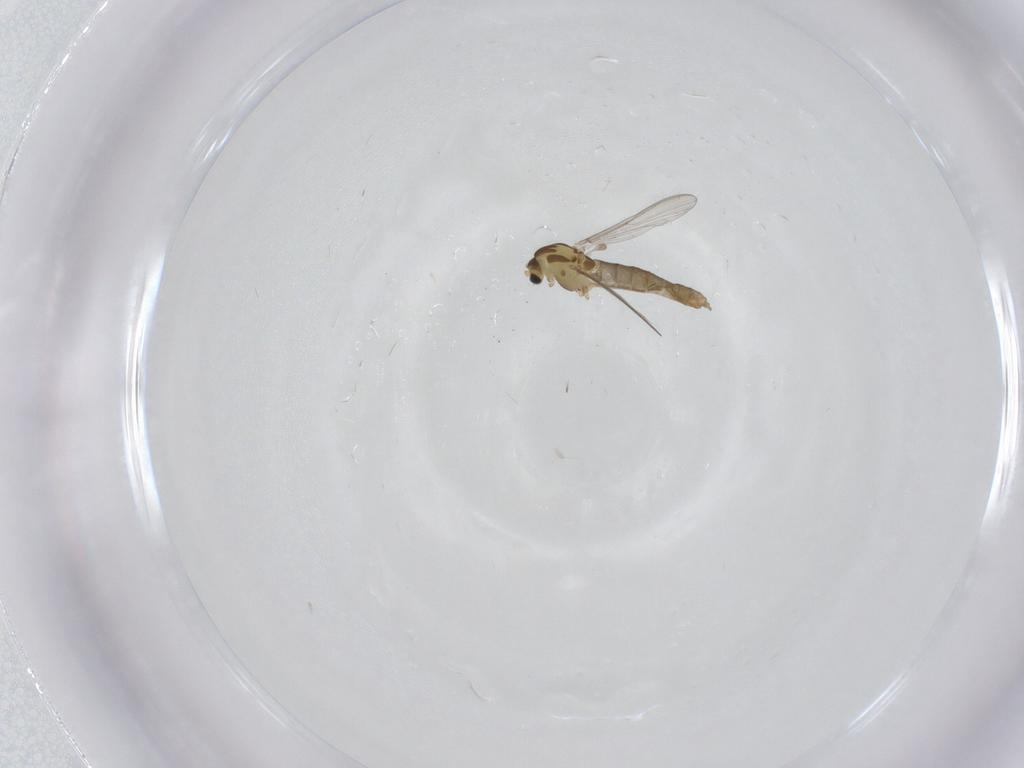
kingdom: Animalia
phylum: Arthropoda
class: Insecta
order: Diptera
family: Chironomidae
